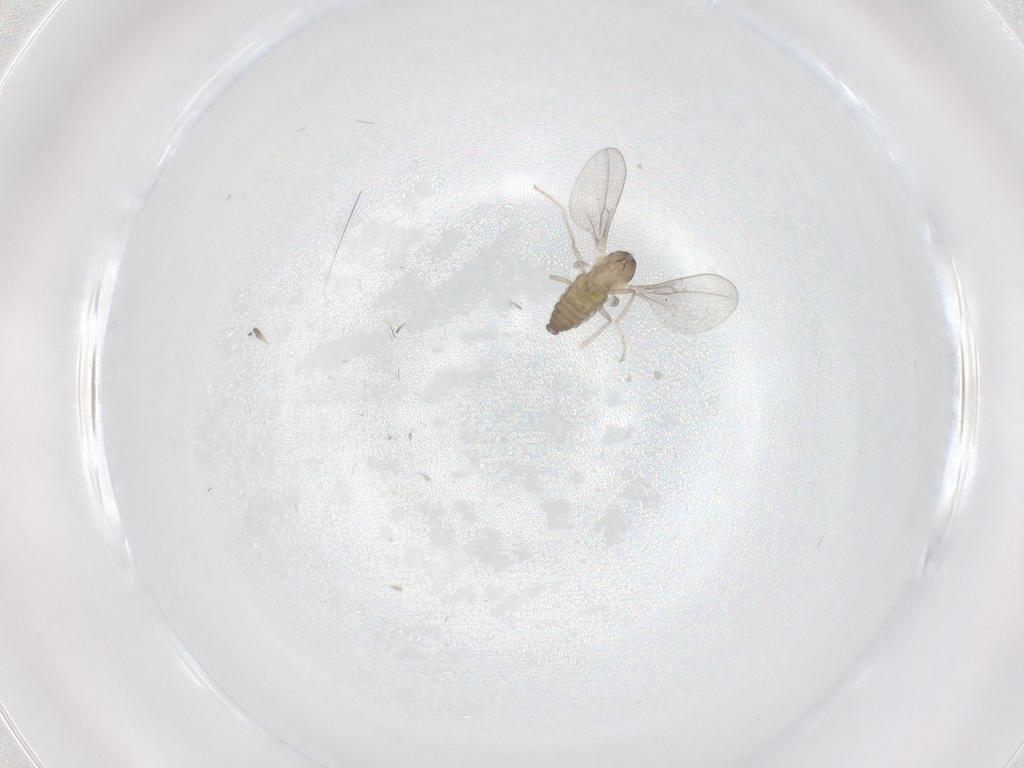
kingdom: Animalia
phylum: Arthropoda
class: Insecta
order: Diptera
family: Cecidomyiidae
